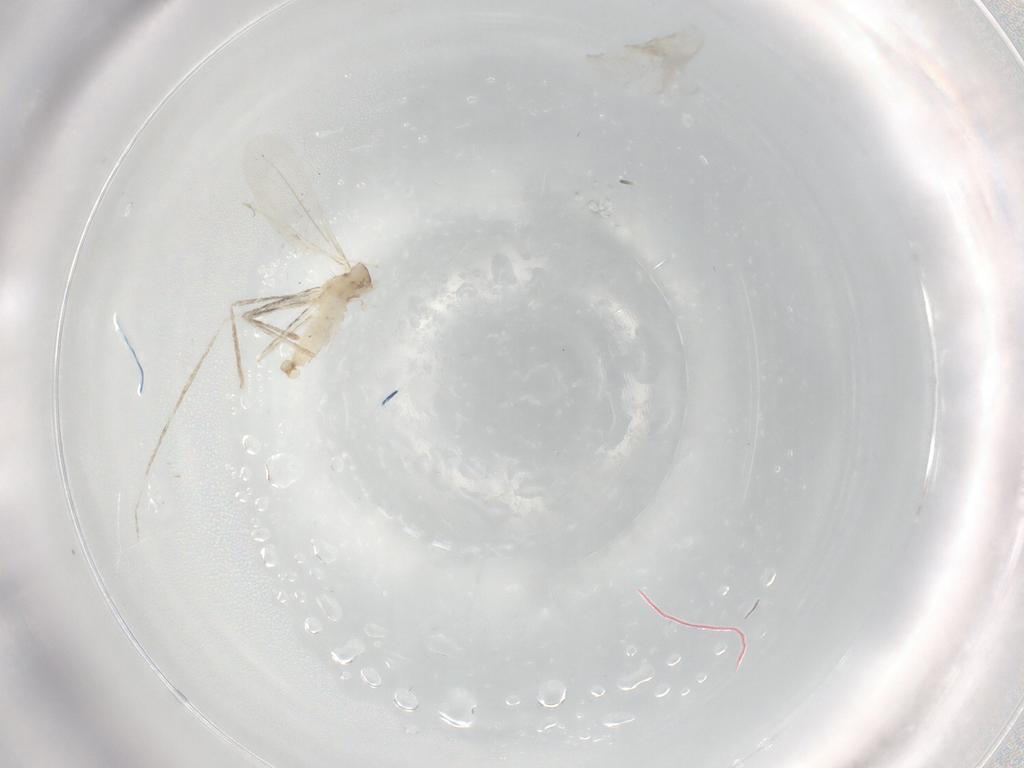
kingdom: Animalia
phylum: Arthropoda
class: Insecta
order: Diptera
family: Cecidomyiidae
